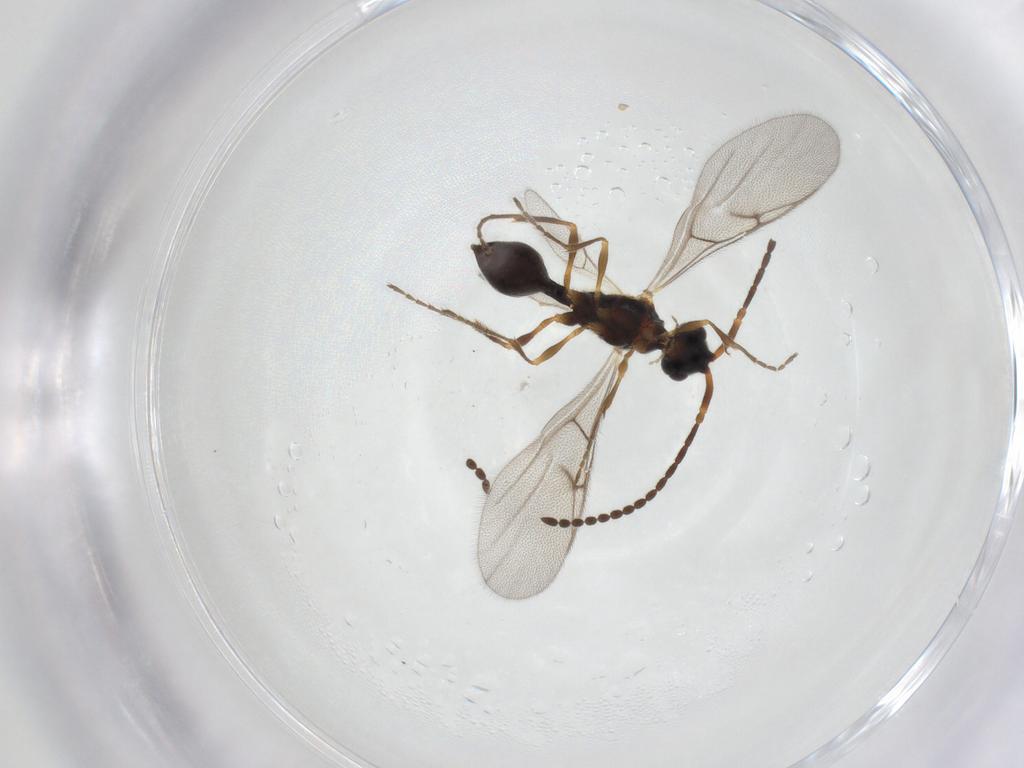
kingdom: Animalia
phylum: Arthropoda
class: Insecta
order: Hymenoptera
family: Diapriidae
